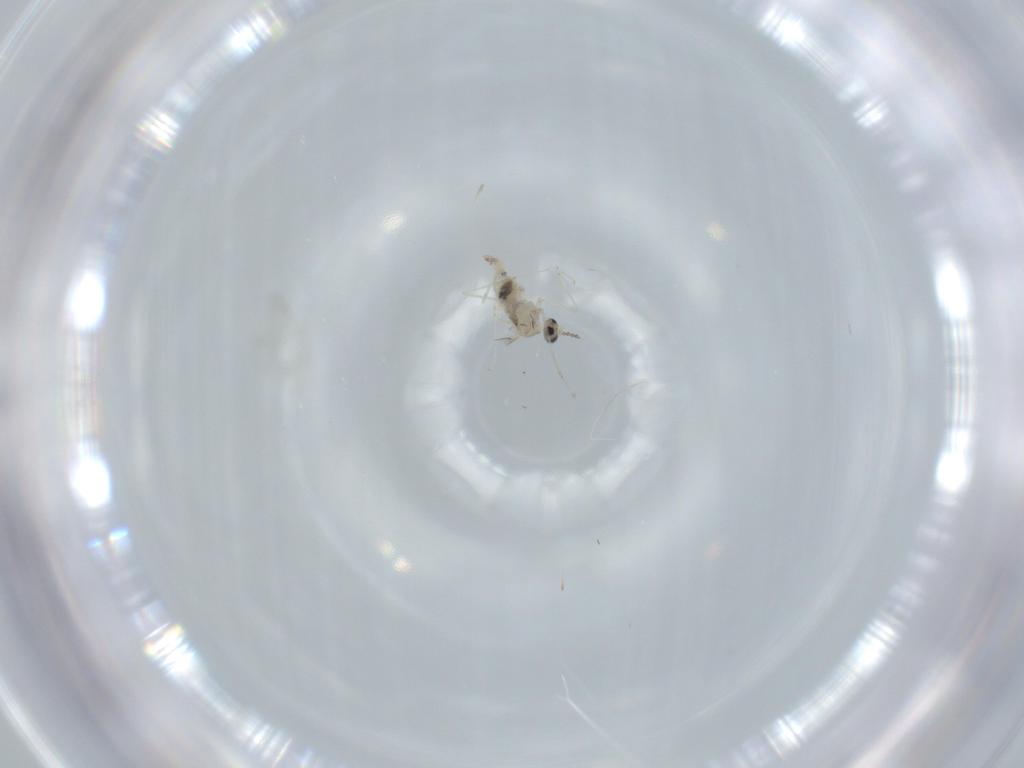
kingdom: Animalia
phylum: Arthropoda
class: Insecta
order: Diptera
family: Cecidomyiidae
